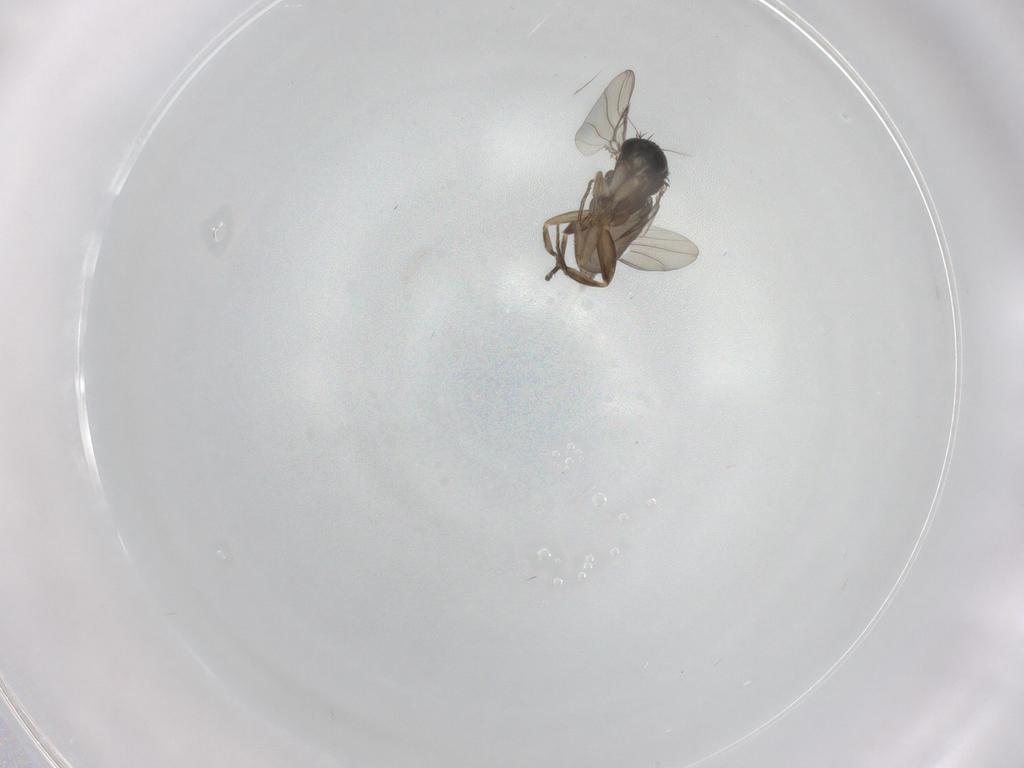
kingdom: Animalia
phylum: Arthropoda
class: Insecta
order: Diptera
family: Phoridae
